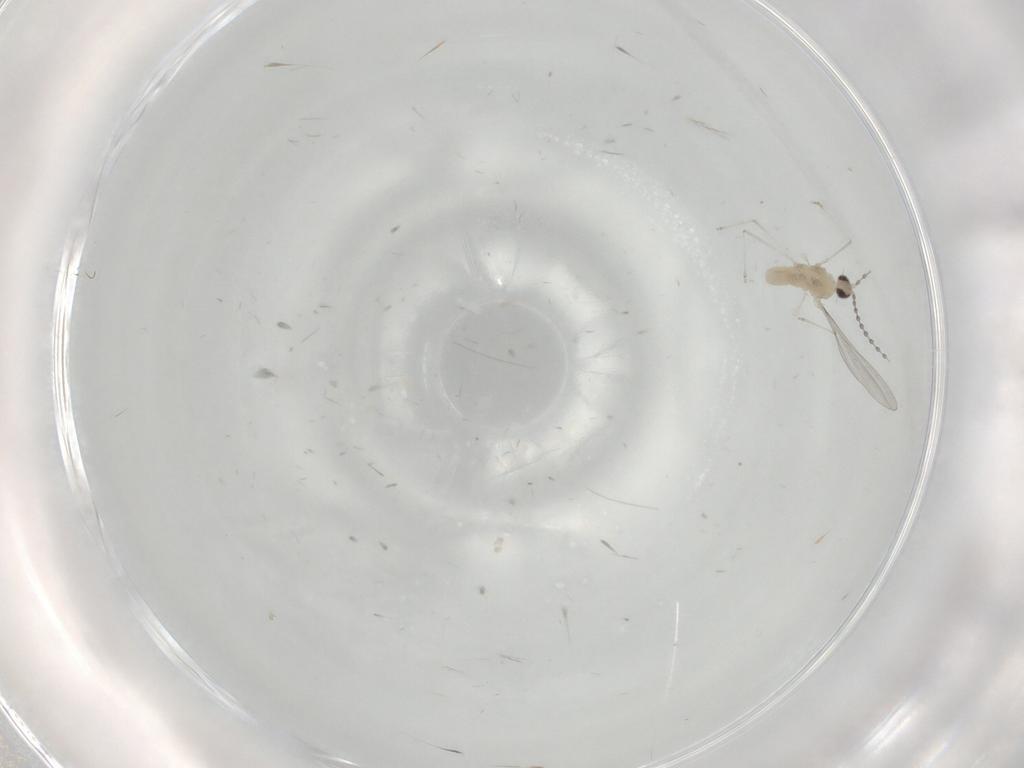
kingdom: Animalia
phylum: Arthropoda
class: Insecta
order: Diptera
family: Cecidomyiidae
